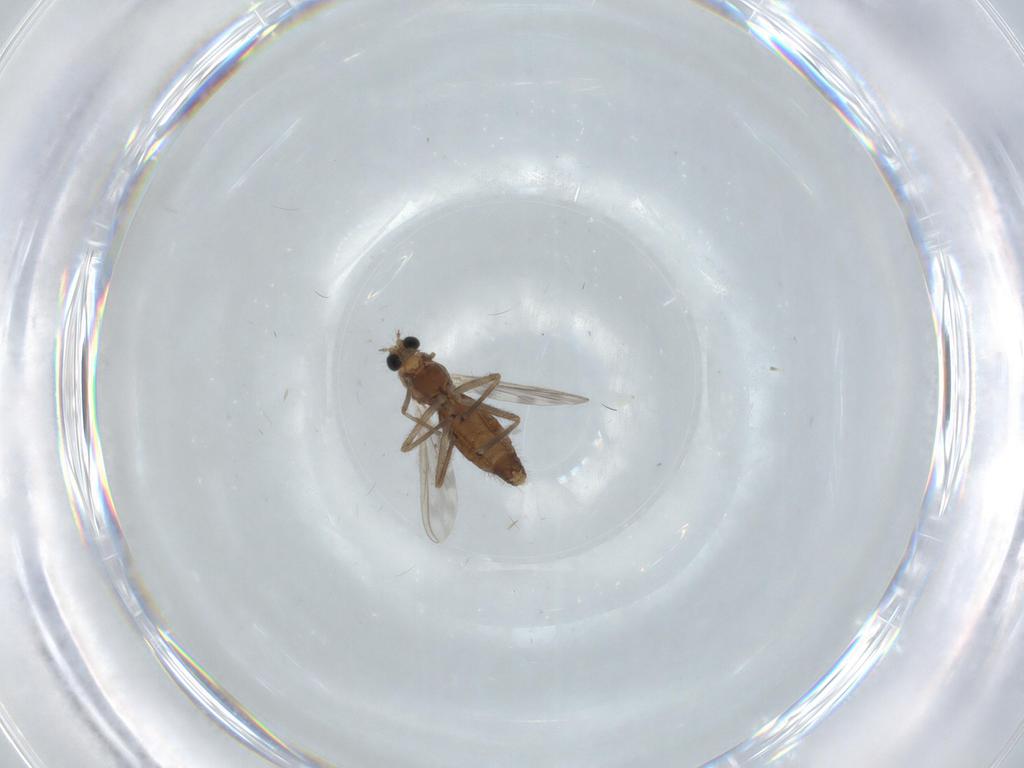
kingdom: Animalia
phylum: Arthropoda
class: Insecta
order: Diptera
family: Chironomidae
